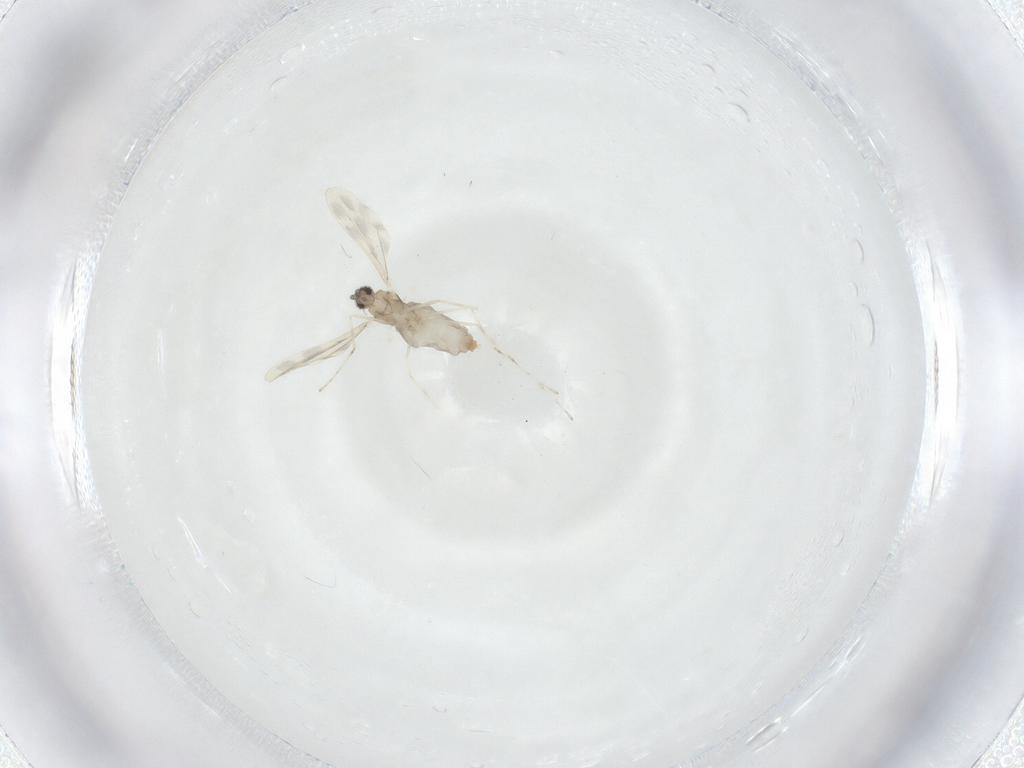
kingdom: Animalia
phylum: Arthropoda
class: Insecta
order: Diptera
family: Cecidomyiidae
